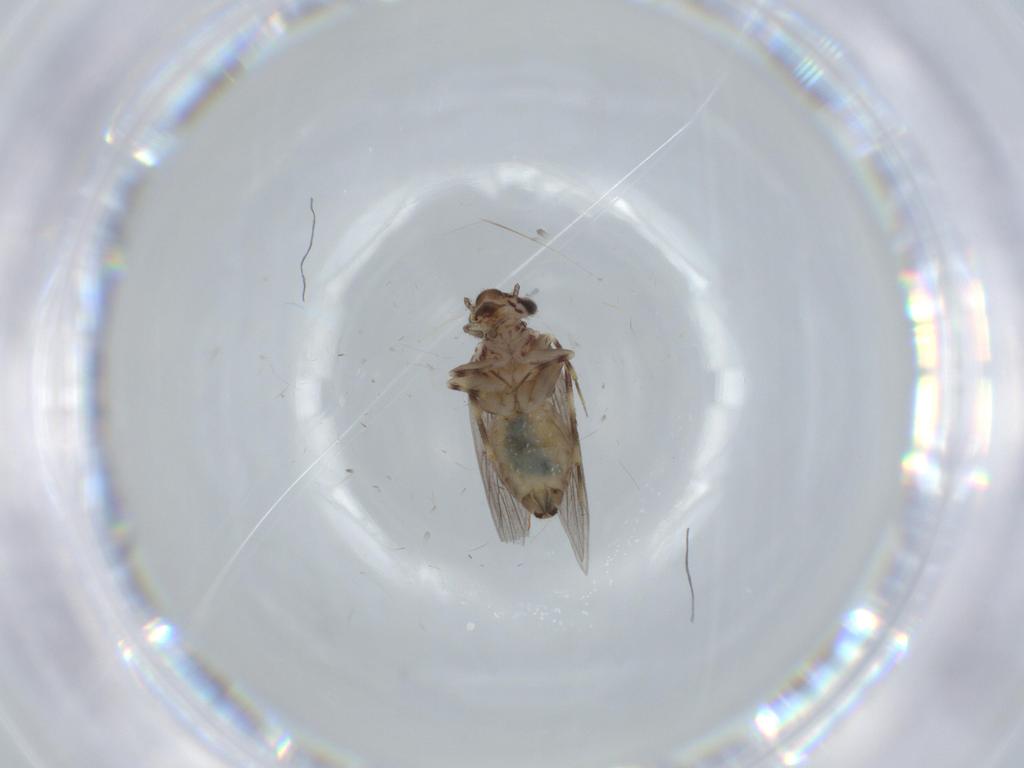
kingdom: Animalia
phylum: Arthropoda
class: Insecta
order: Psocodea
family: Lepidopsocidae
